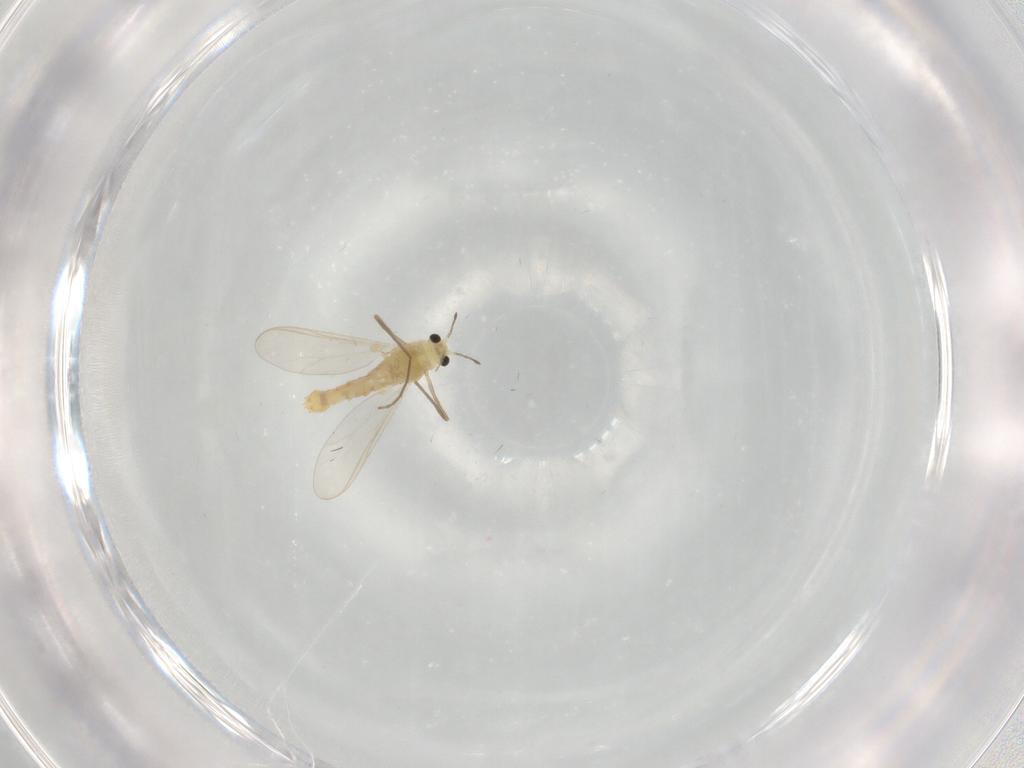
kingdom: Animalia
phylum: Arthropoda
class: Insecta
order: Diptera
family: Chironomidae
